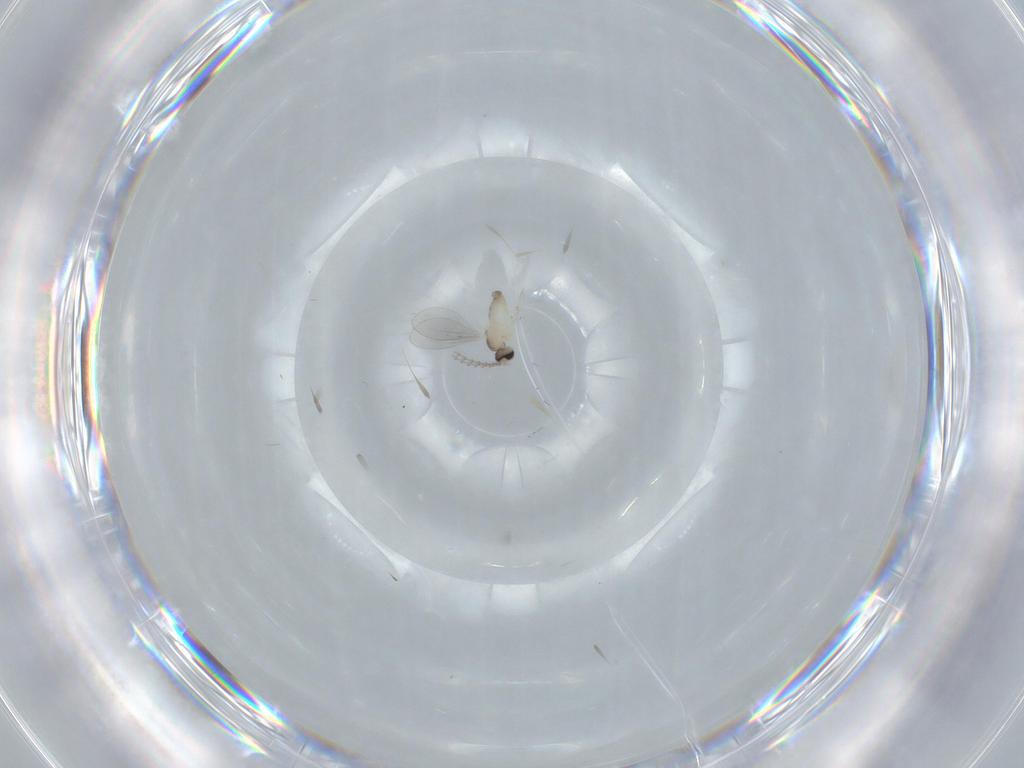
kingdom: Animalia
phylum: Arthropoda
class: Insecta
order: Diptera
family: Cecidomyiidae
